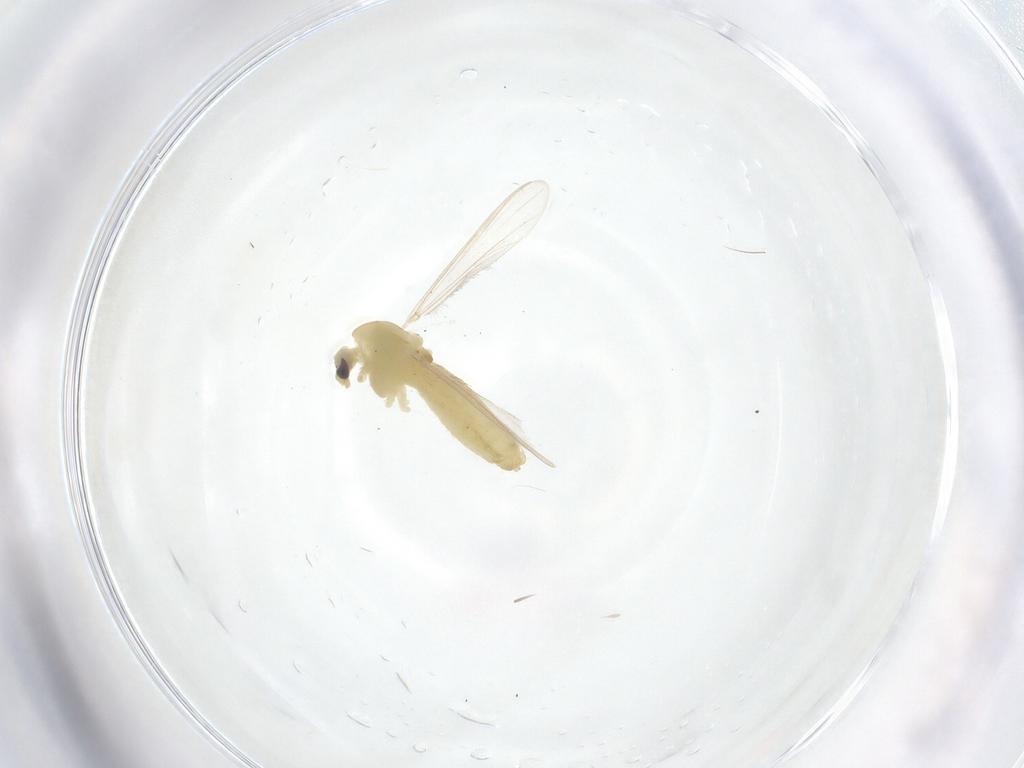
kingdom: Animalia
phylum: Arthropoda
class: Insecta
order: Diptera
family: Chironomidae
